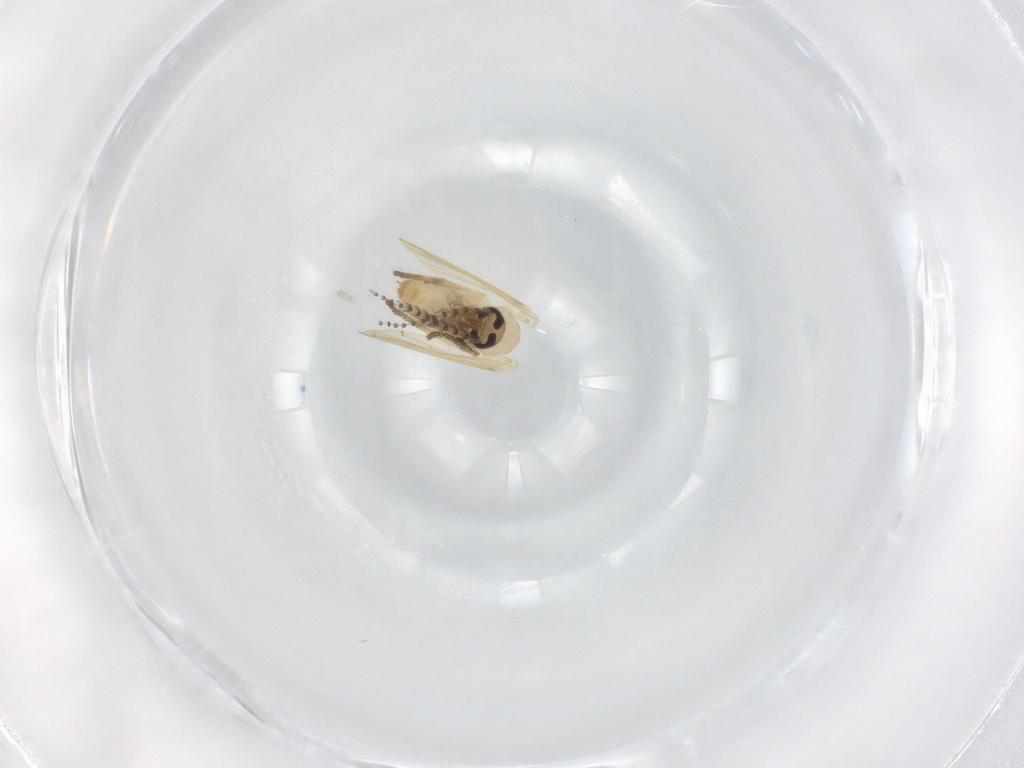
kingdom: Animalia
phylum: Arthropoda
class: Insecta
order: Diptera
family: Psychodidae
